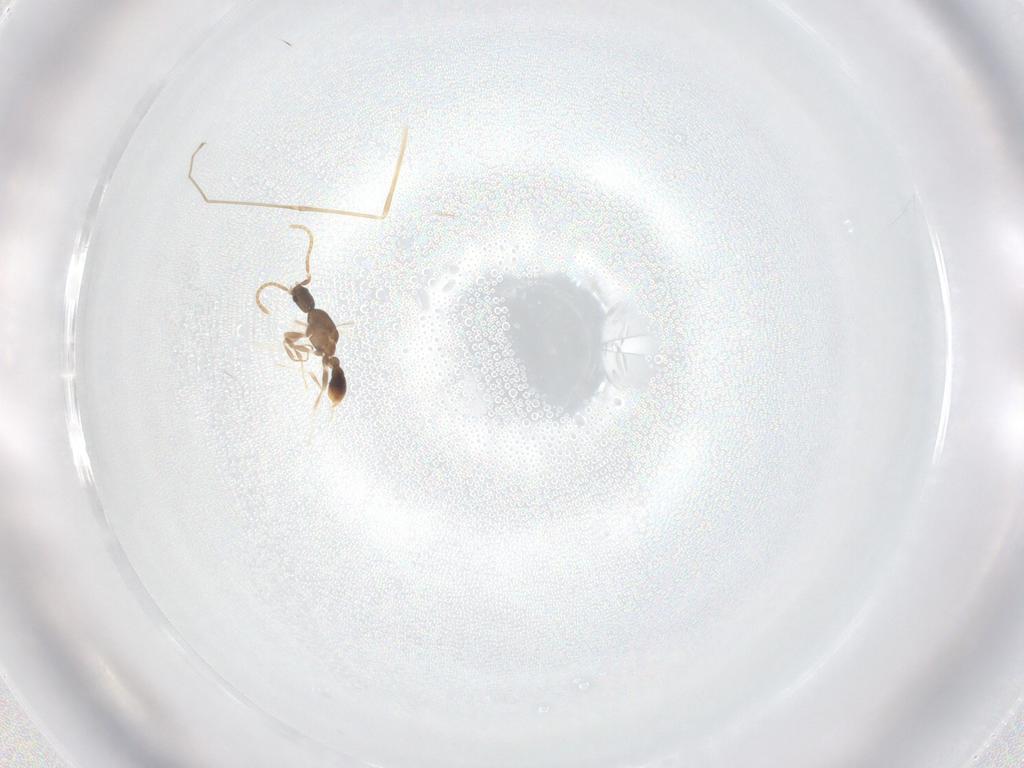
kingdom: Animalia
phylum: Arthropoda
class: Insecta
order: Hymenoptera
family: Formicidae
